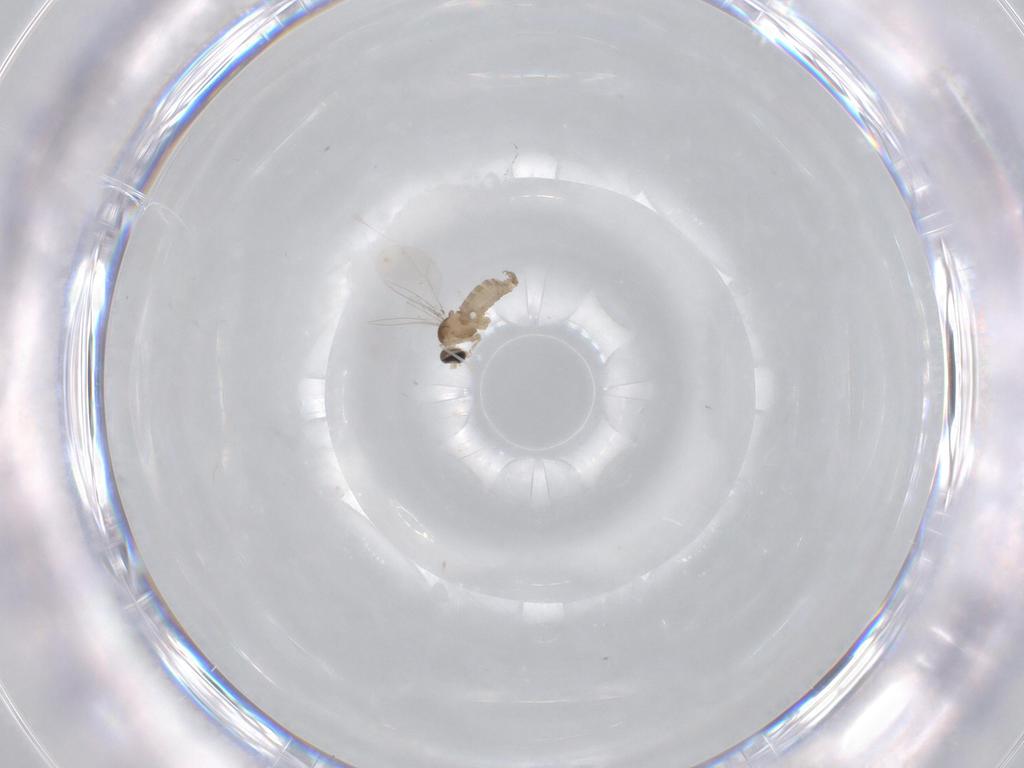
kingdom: Animalia
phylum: Arthropoda
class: Insecta
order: Diptera
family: Cecidomyiidae
